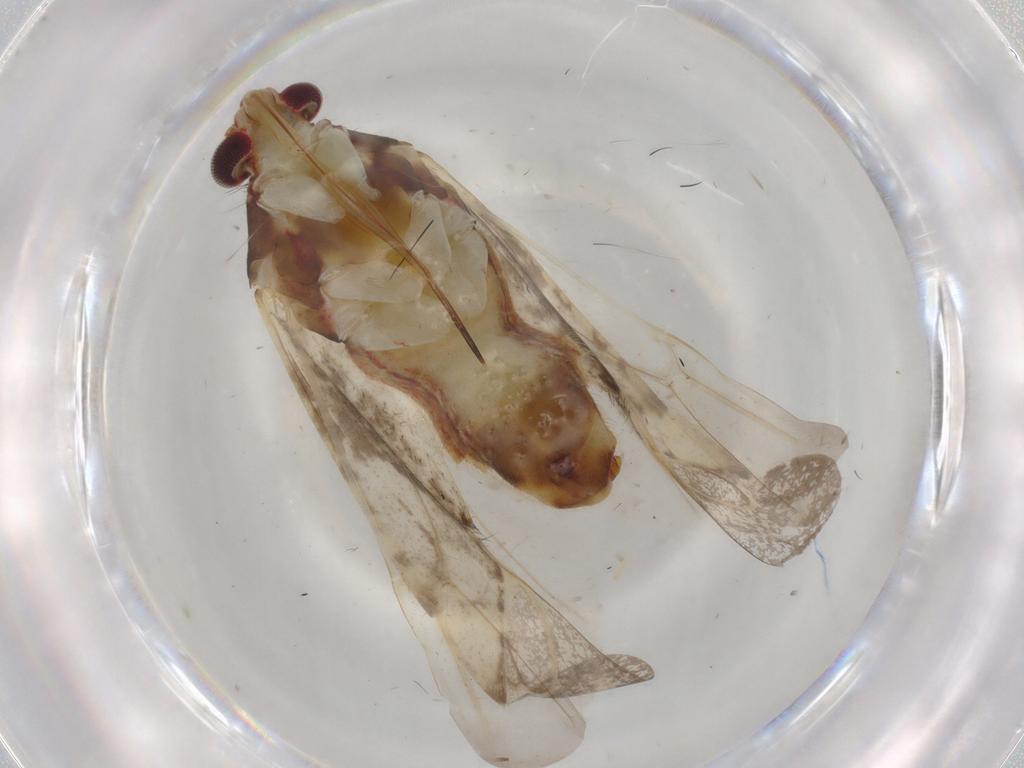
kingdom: Animalia
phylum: Arthropoda
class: Insecta
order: Hemiptera
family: Miridae
